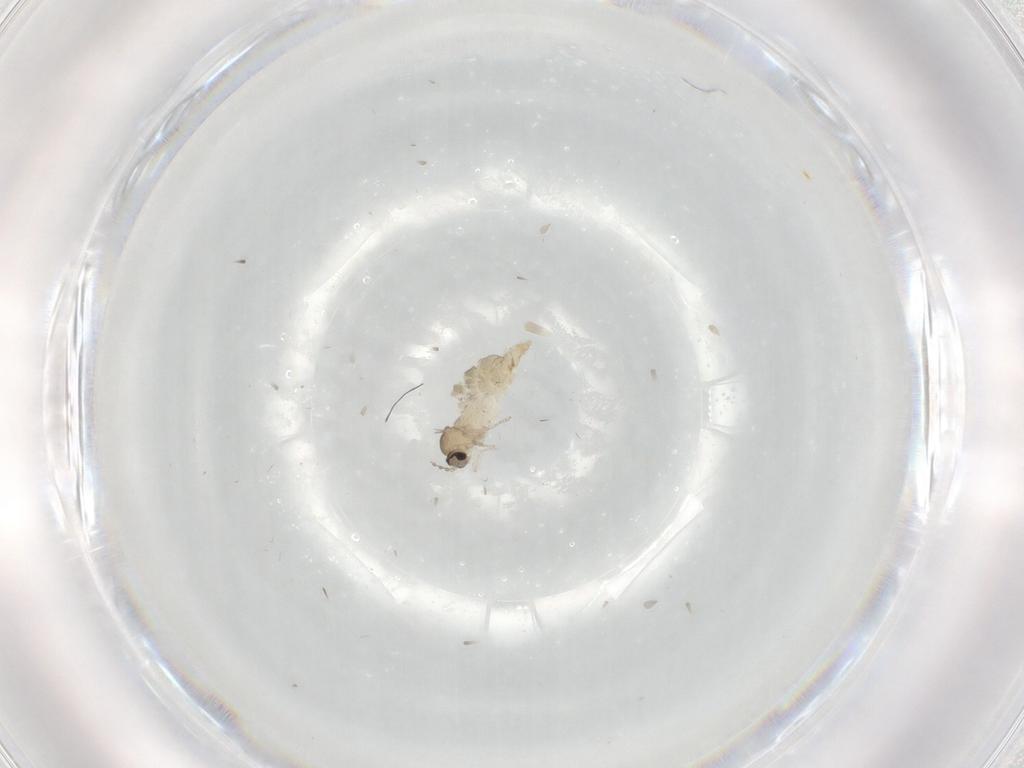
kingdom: Animalia
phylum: Arthropoda
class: Insecta
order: Diptera
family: Cecidomyiidae
